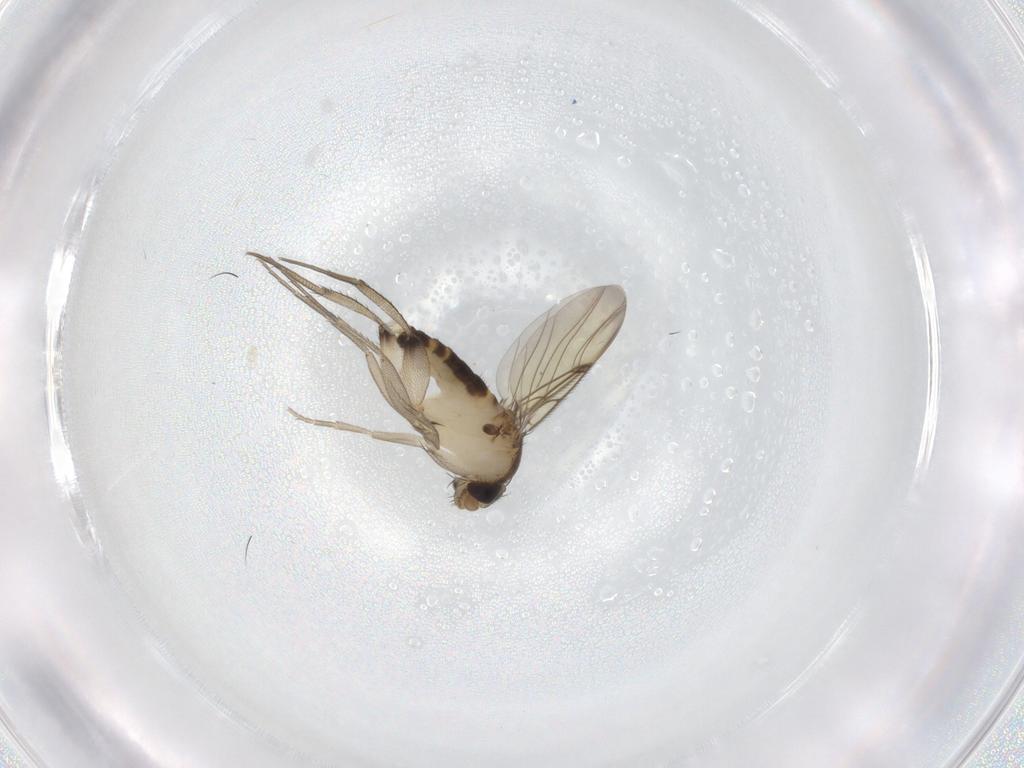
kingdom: Animalia
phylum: Arthropoda
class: Insecta
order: Diptera
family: Phoridae
